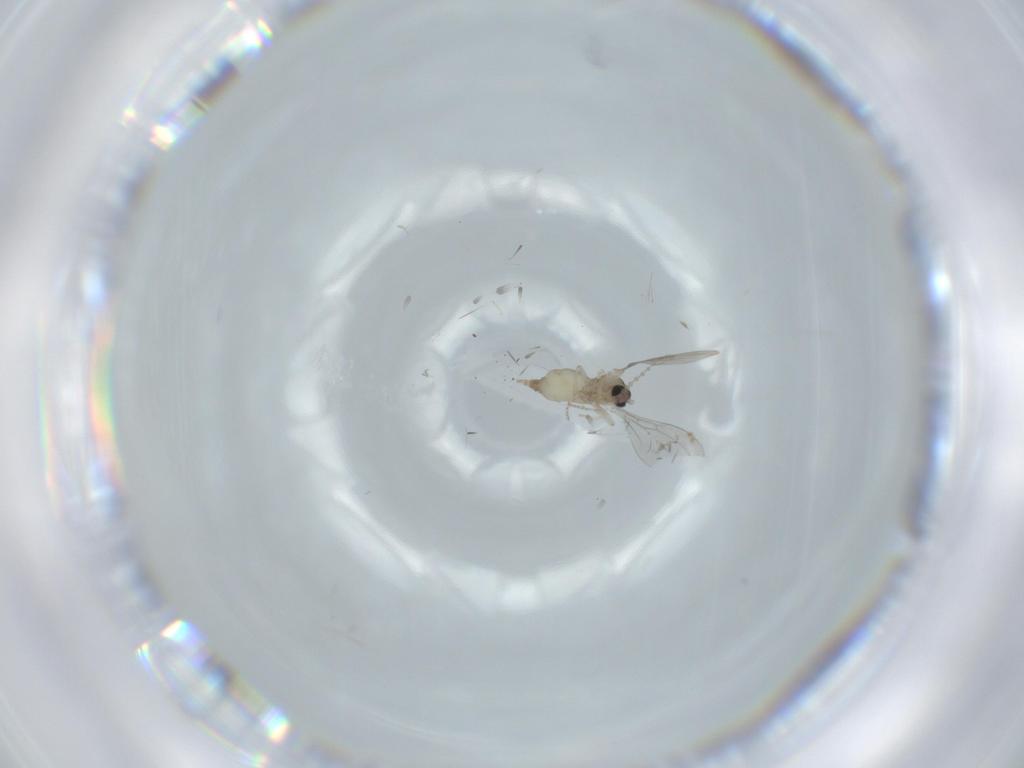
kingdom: Animalia
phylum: Arthropoda
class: Insecta
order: Diptera
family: Cecidomyiidae
